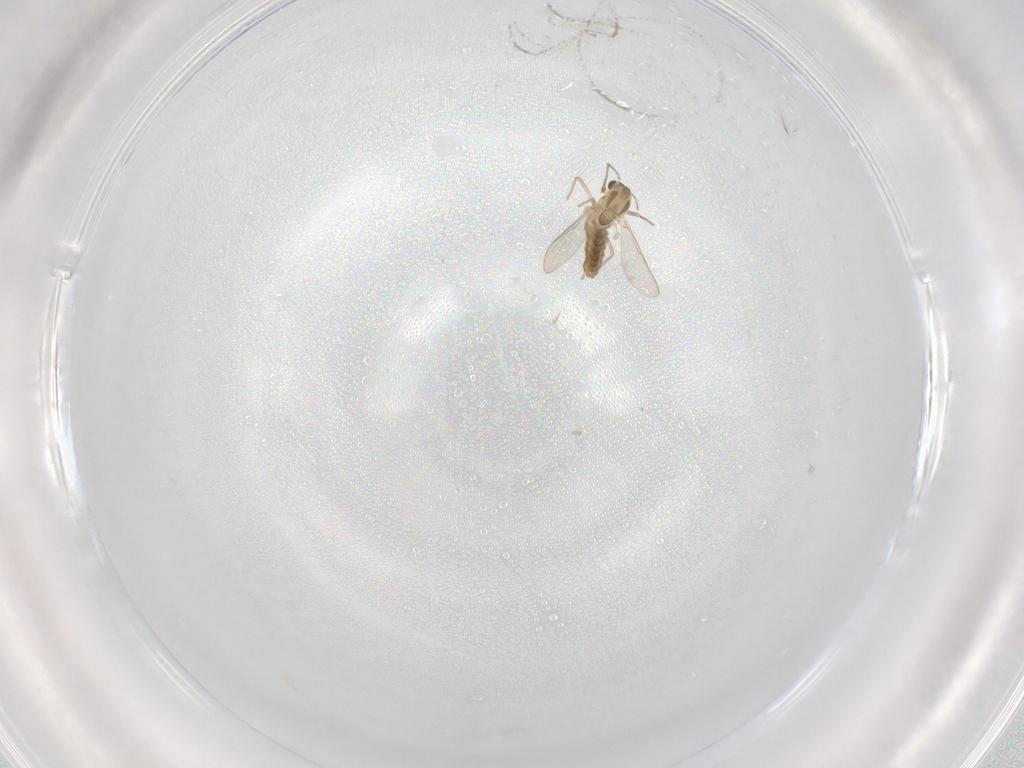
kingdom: Animalia
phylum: Arthropoda
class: Insecta
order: Diptera
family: Chironomidae
